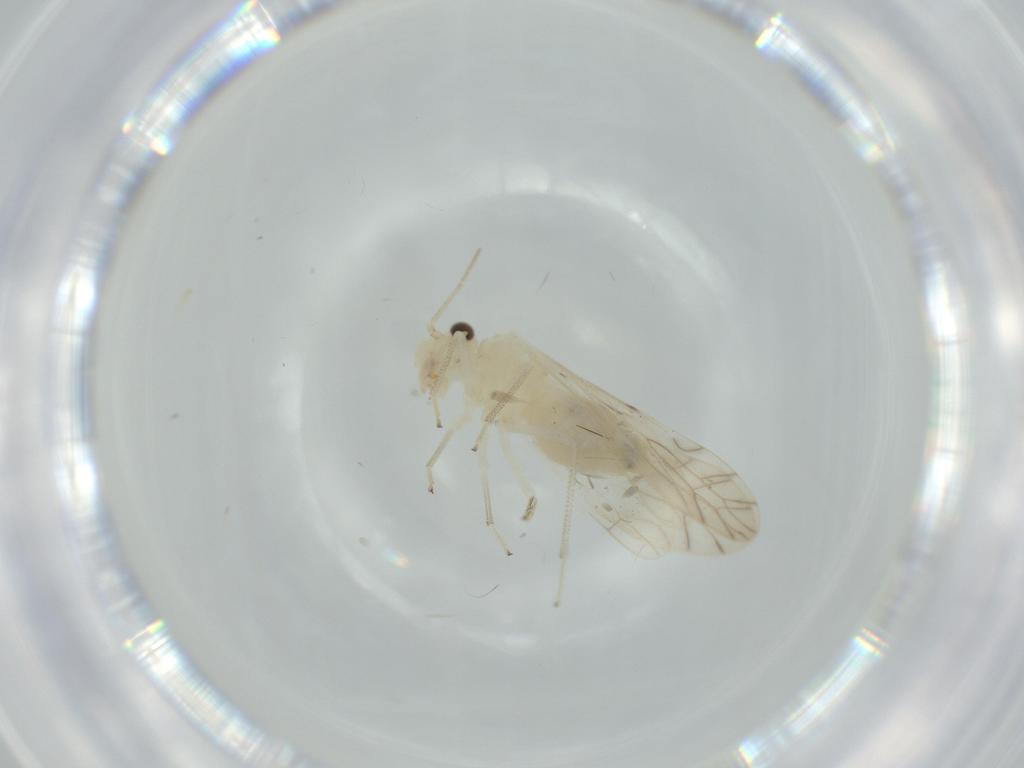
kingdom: Animalia
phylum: Arthropoda
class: Insecta
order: Psocodea
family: Caeciliusidae
